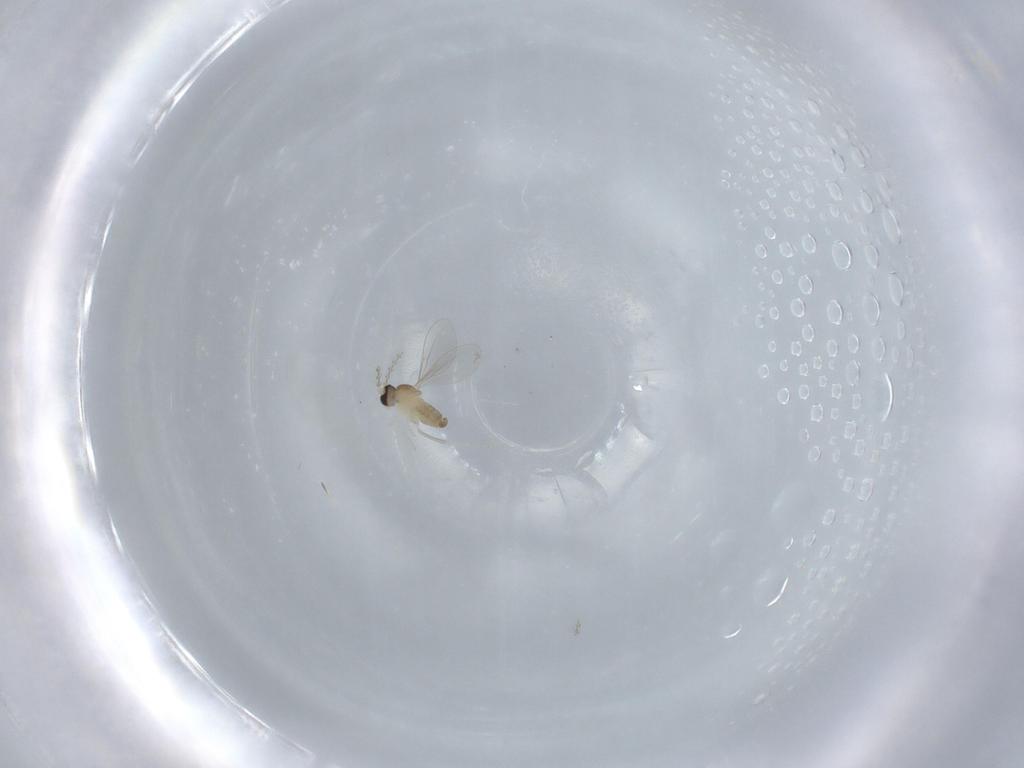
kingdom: Animalia
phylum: Arthropoda
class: Insecta
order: Diptera
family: Cecidomyiidae
